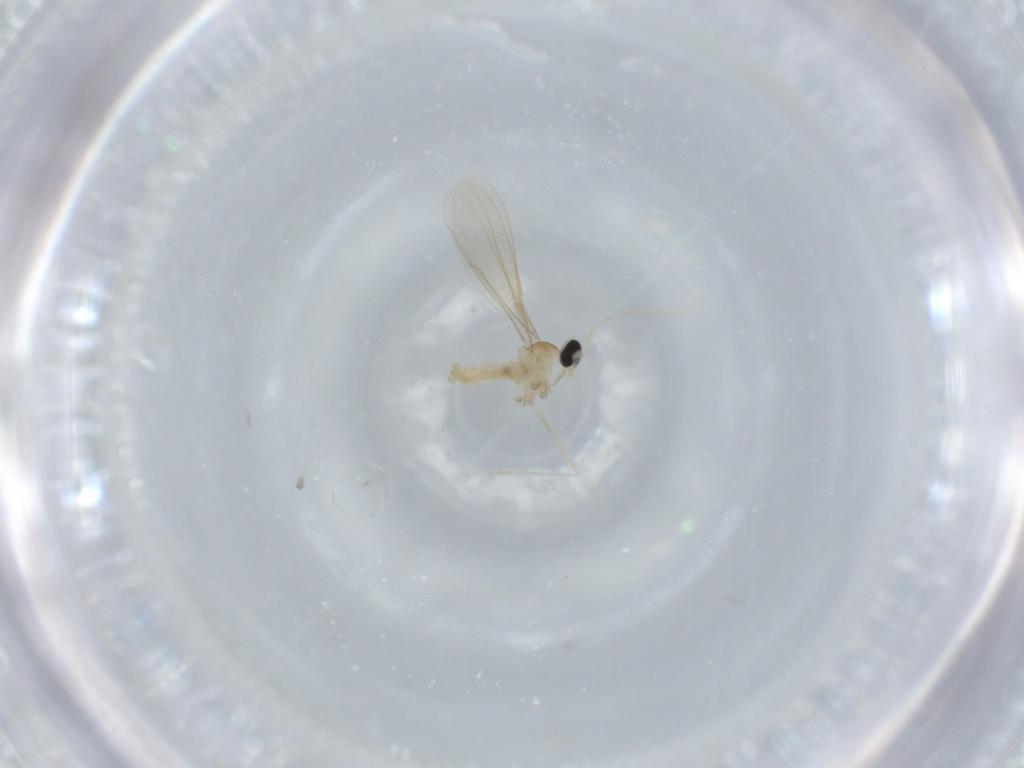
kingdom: Animalia
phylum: Arthropoda
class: Insecta
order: Diptera
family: Cecidomyiidae
